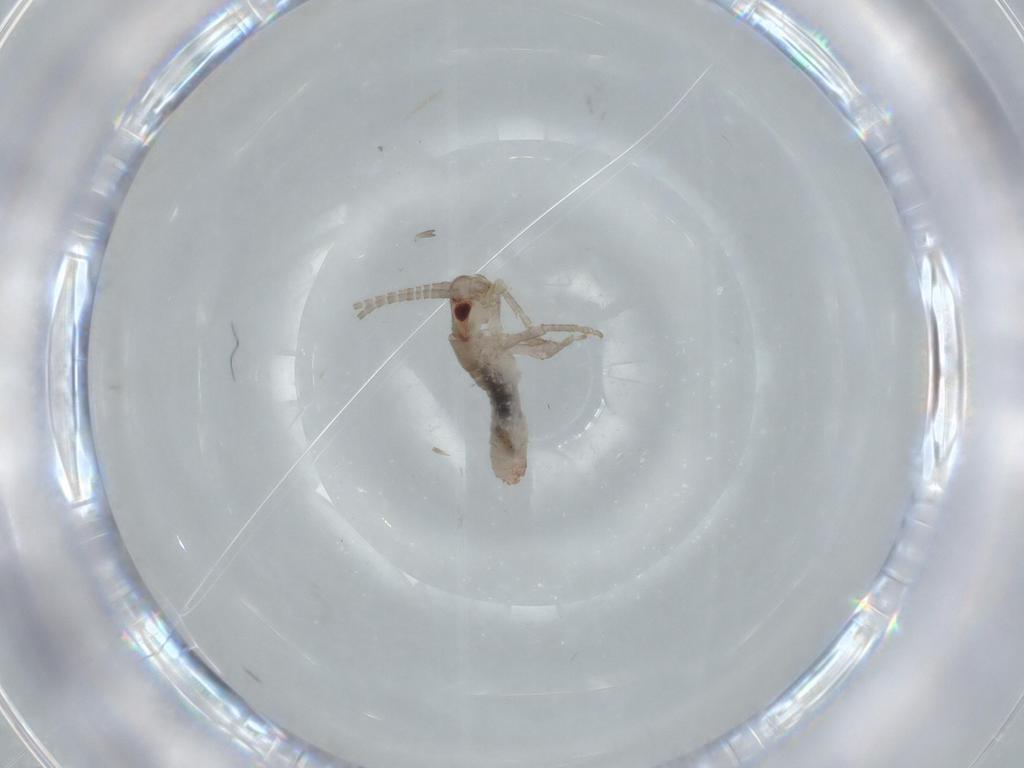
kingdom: Animalia
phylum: Arthropoda
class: Insecta
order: Orthoptera
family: Mogoplistidae
